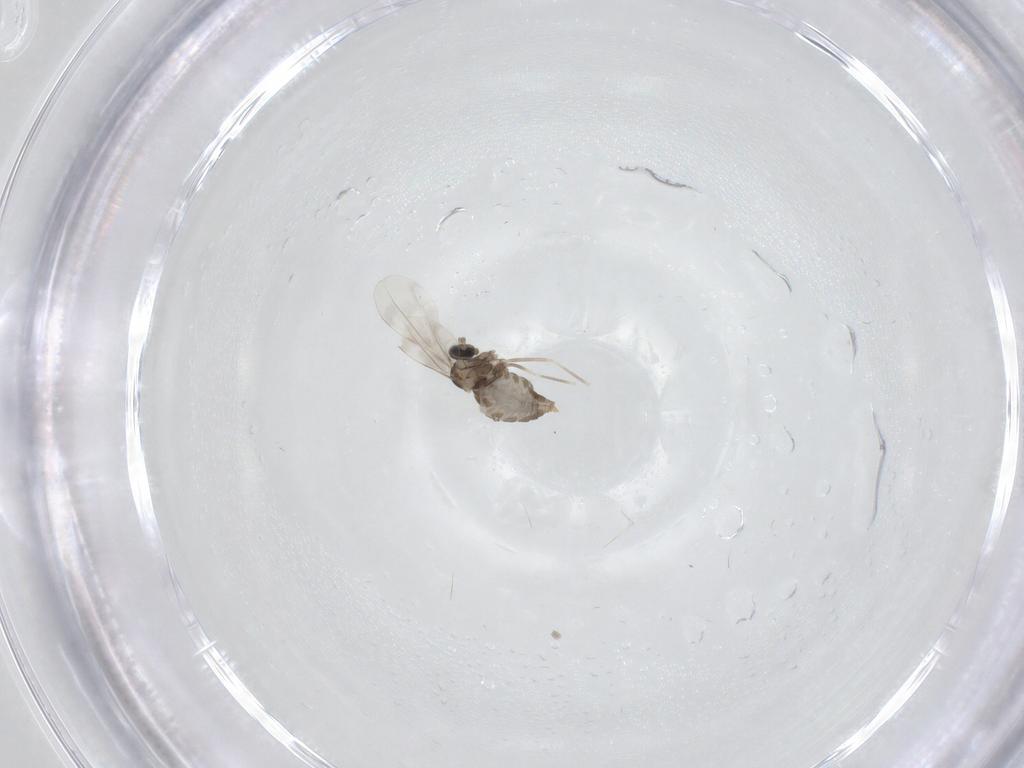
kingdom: Animalia
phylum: Arthropoda
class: Insecta
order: Diptera
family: Cecidomyiidae
